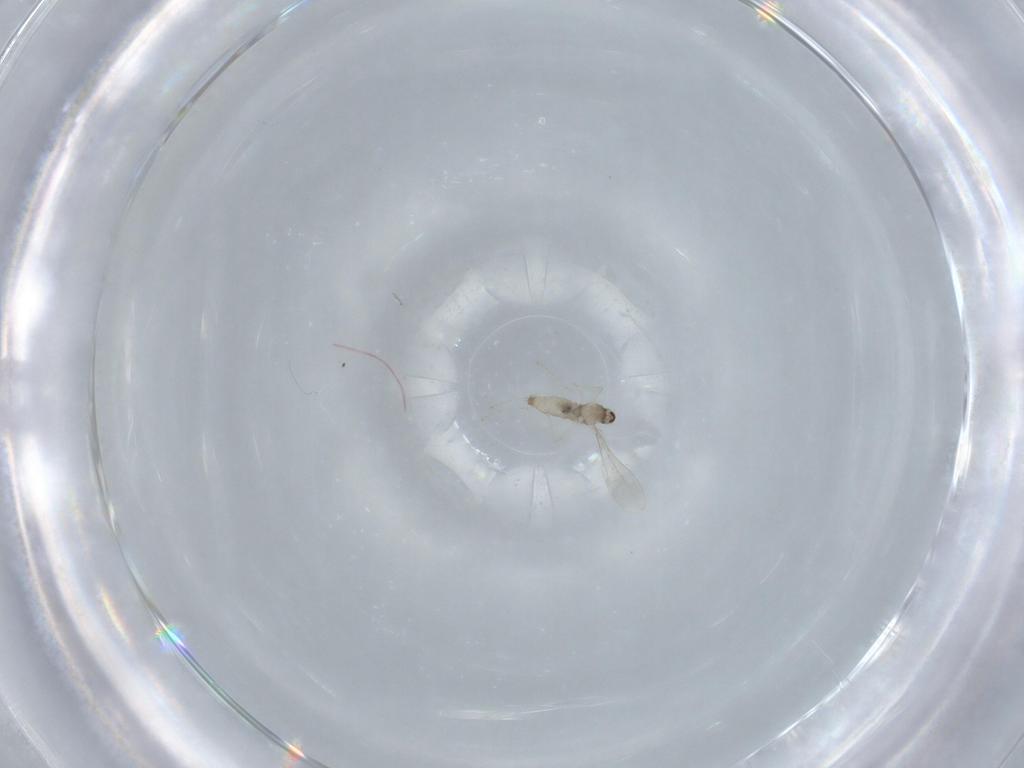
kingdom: Animalia
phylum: Arthropoda
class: Insecta
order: Diptera
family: Cecidomyiidae
